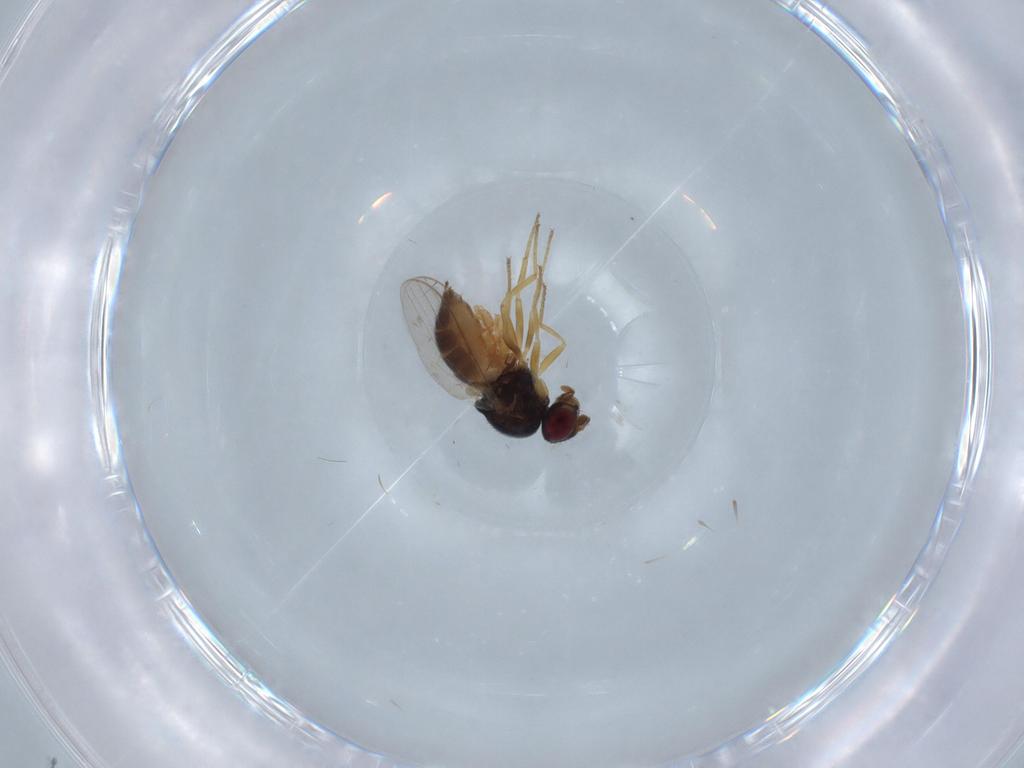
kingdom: Animalia
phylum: Arthropoda
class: Insecta
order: Diptera
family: Chloropidae
